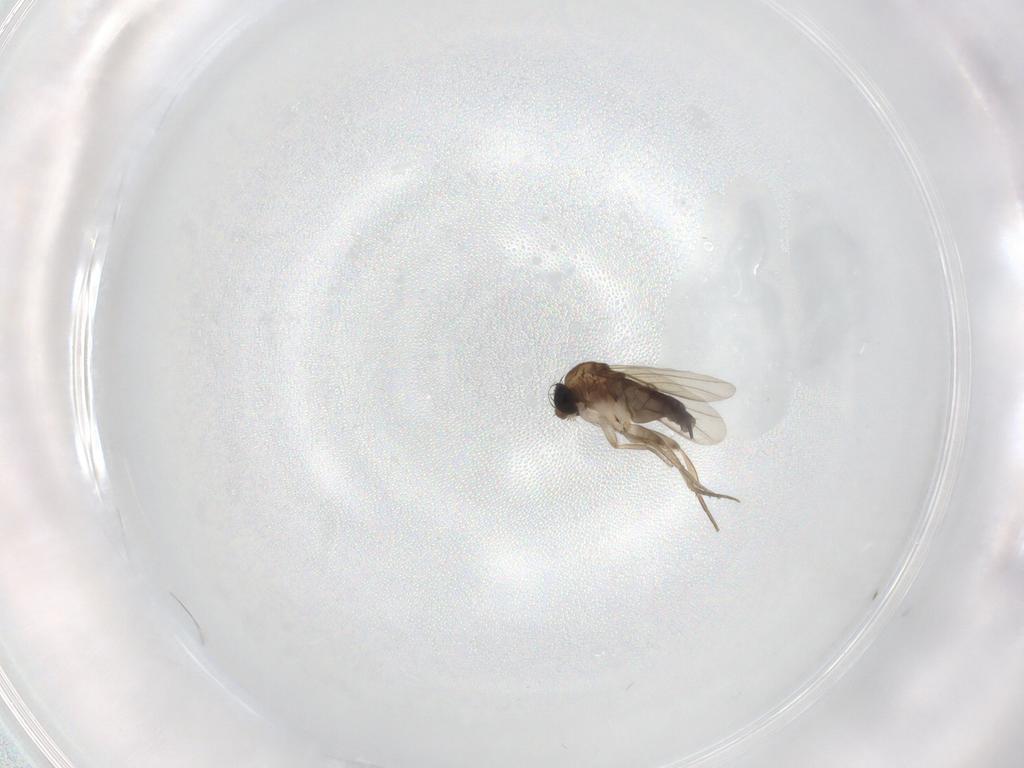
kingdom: Animalia
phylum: Arthropoda
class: Insecta
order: Diptera
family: Phoridae
